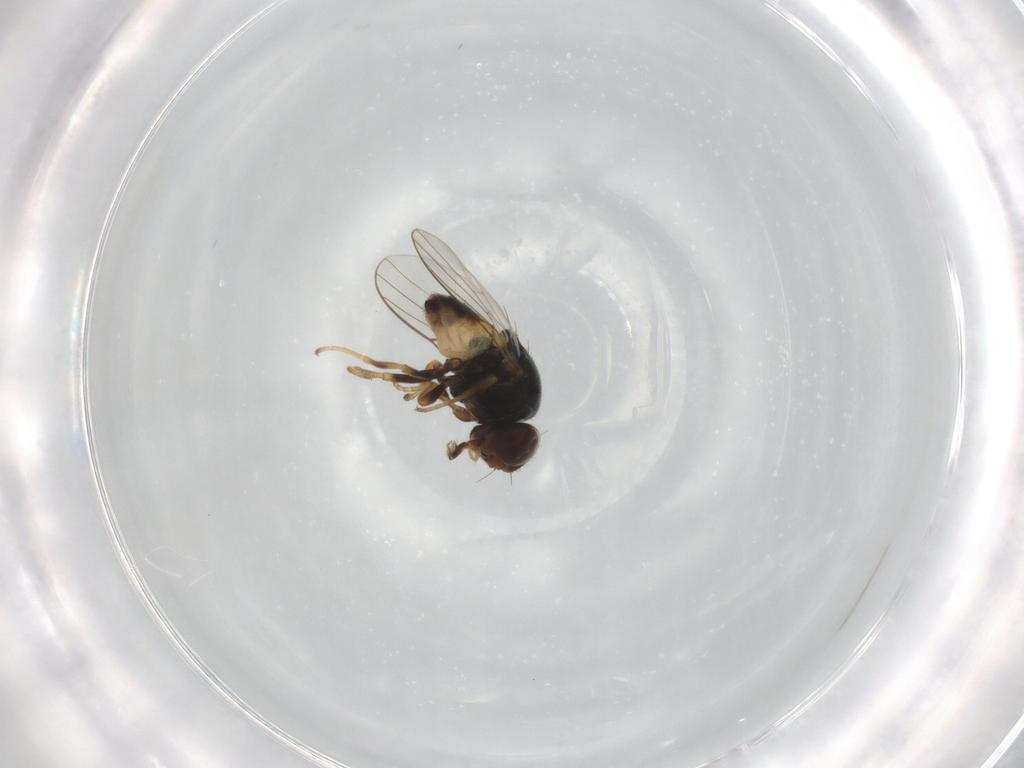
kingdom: Animalia
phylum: Arthropoda
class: Insecta
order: Diptera
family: Chloropidae
